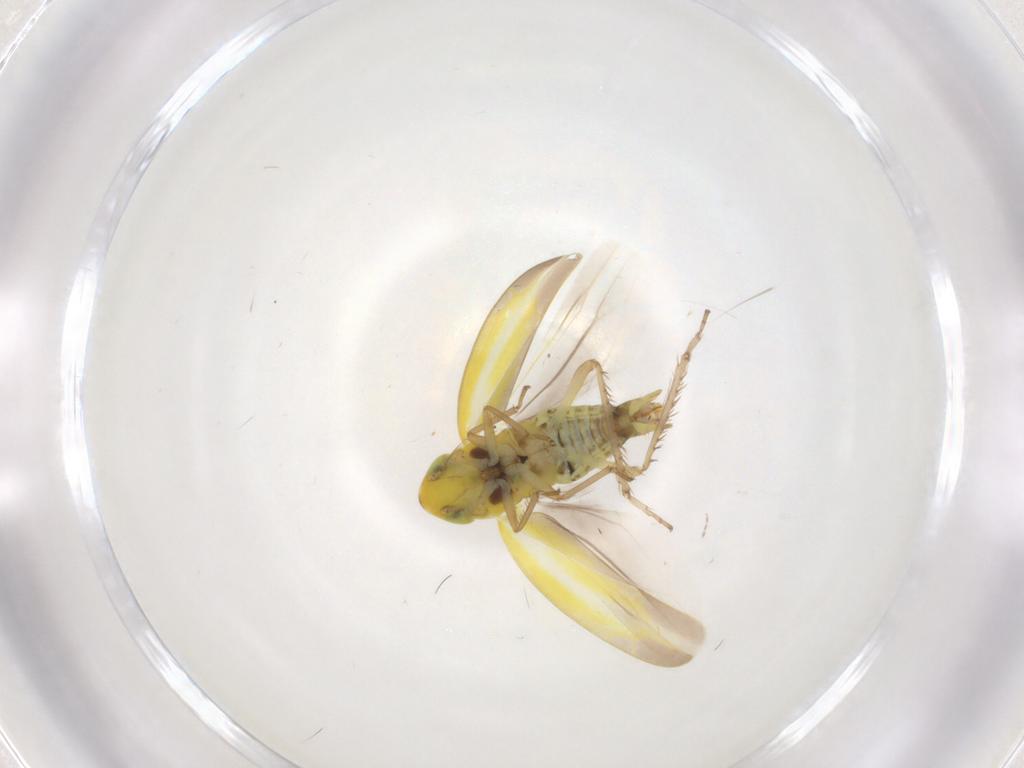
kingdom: Animalia
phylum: Arthropoda
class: Insecta
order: Hemiptera
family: Cicadellidae
